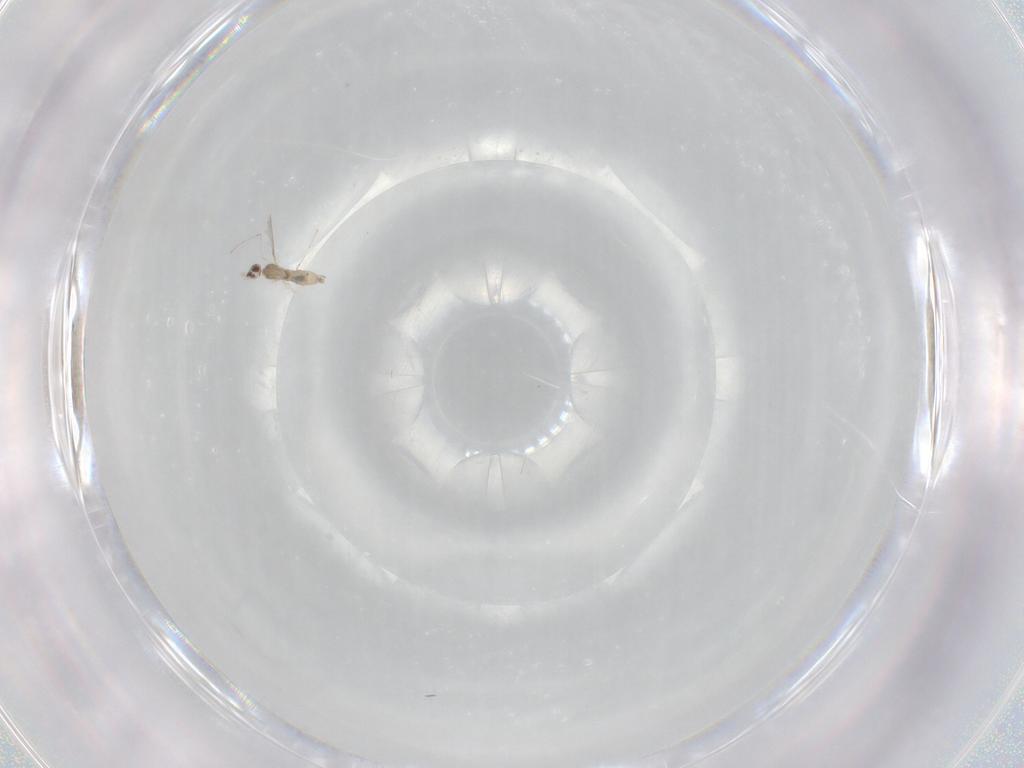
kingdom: Animalia
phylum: Arthropoda
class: Insecta
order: Diptera
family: Cecidomyiidae
